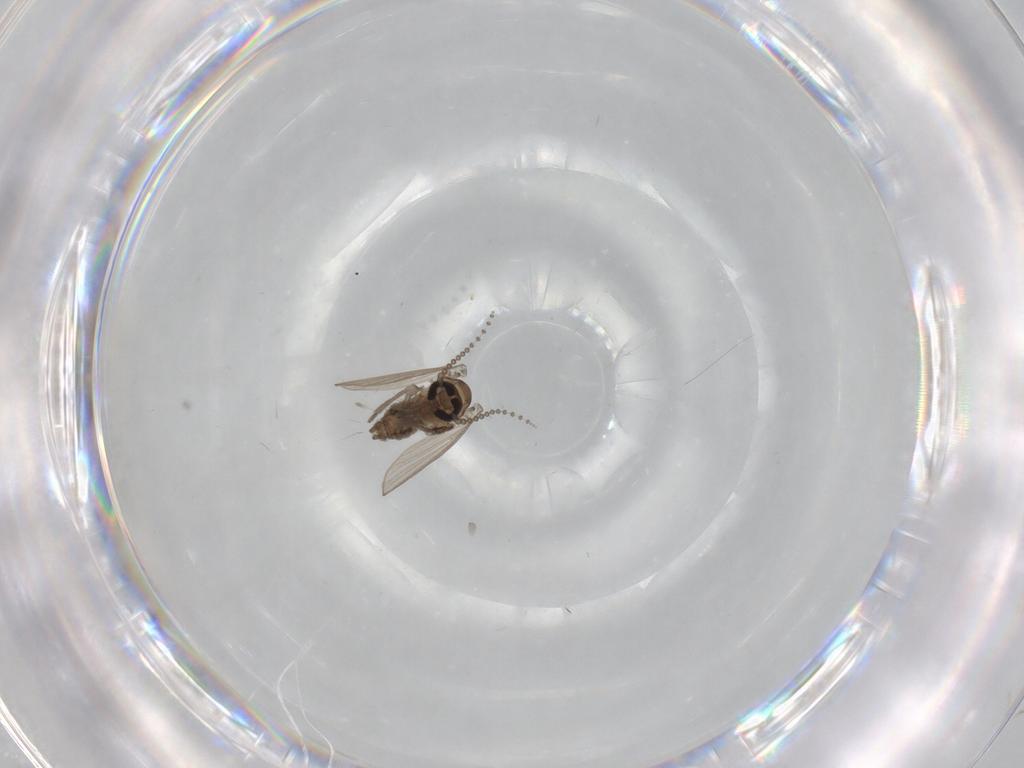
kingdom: Animalia
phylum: Arthropoda
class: Insecta
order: Diptera
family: Psychodidae
